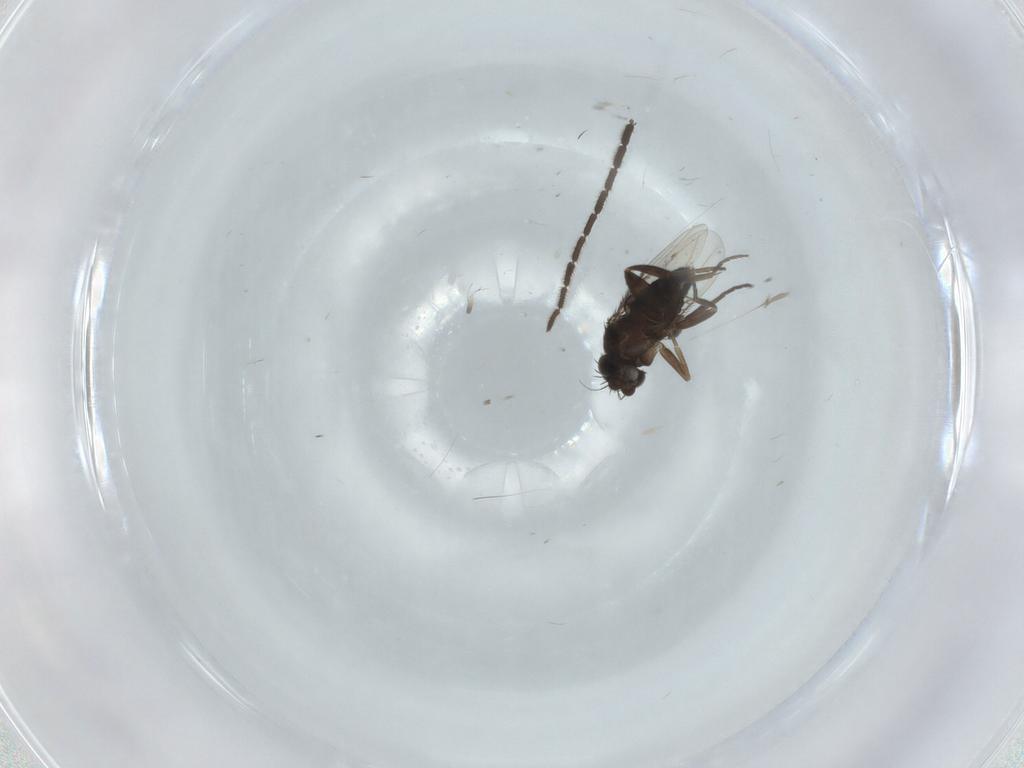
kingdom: Animalia
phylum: Arthropoda
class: Insecta
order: Diptera
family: Phoridae
